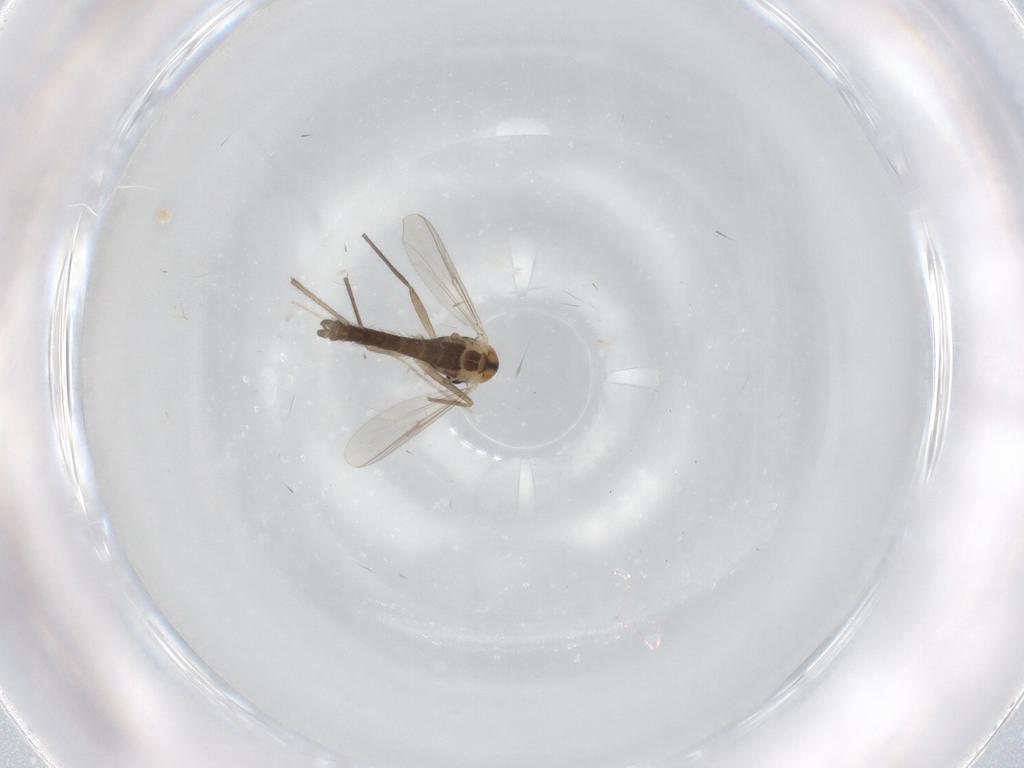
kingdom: Animalia
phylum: Arthropoda
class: Insecta
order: Diptera
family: Chironomidae
